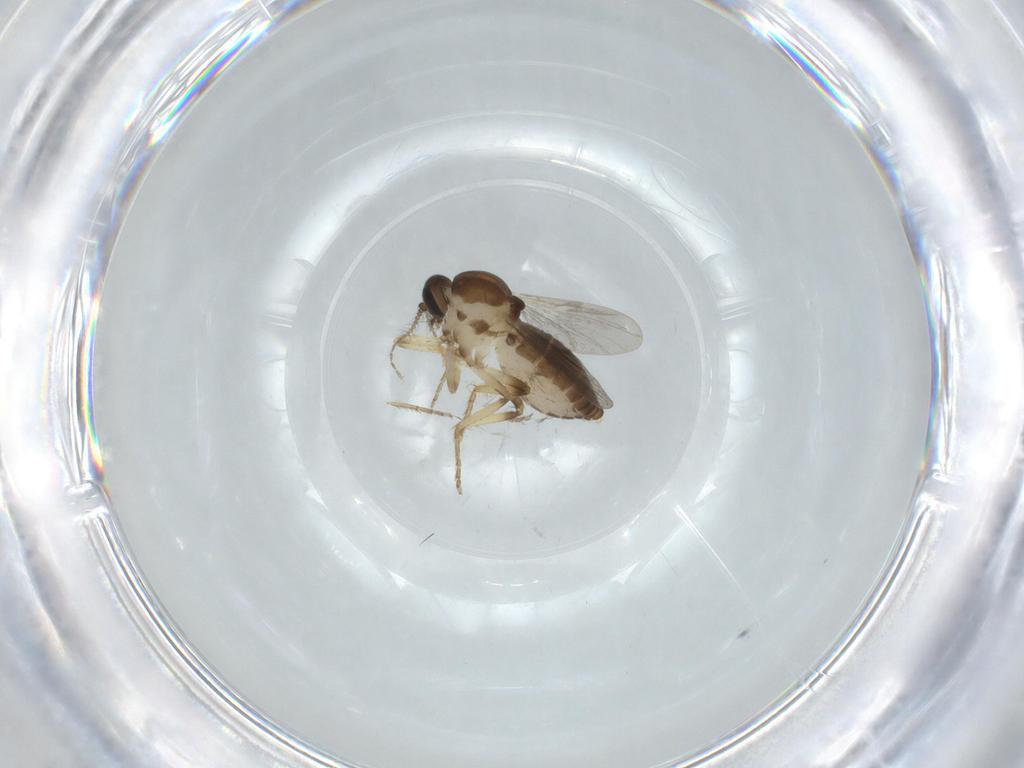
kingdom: Animalia
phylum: Arthropoda
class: Insecta
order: Diptera
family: Ceratopogonidae
